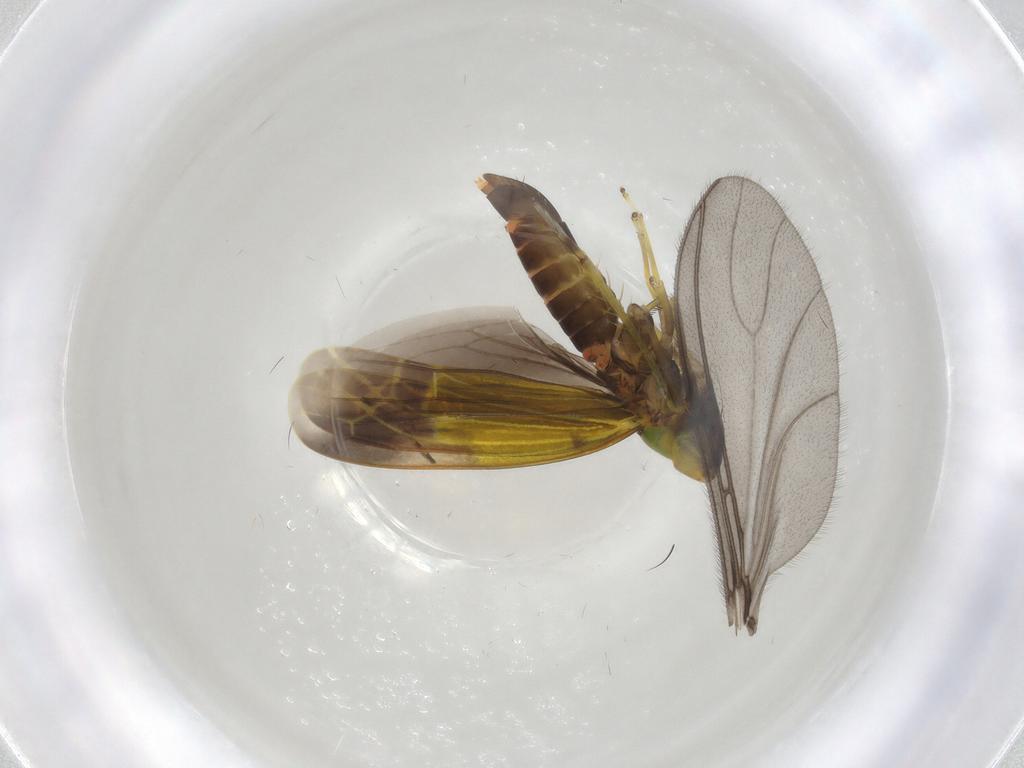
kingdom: Animalia
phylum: Arthropoda
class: Insecta
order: Hemiptera
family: Cicadellidae
